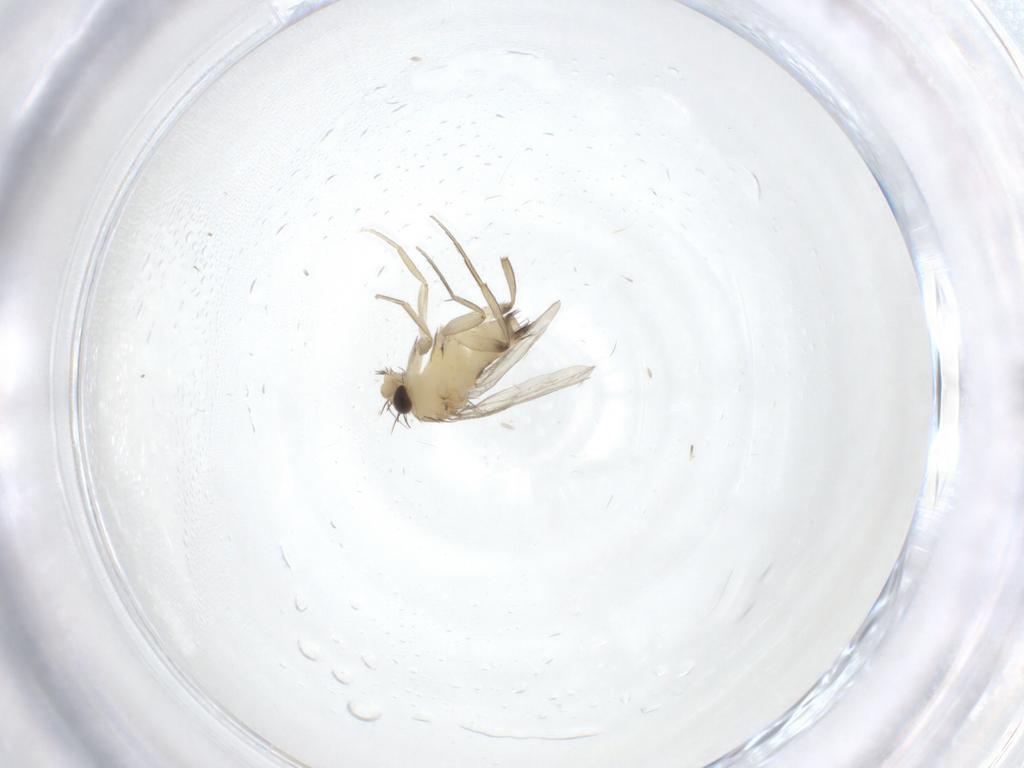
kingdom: Animalia
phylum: Arthropoda
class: Insecta
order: Diptera
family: Phoridae
